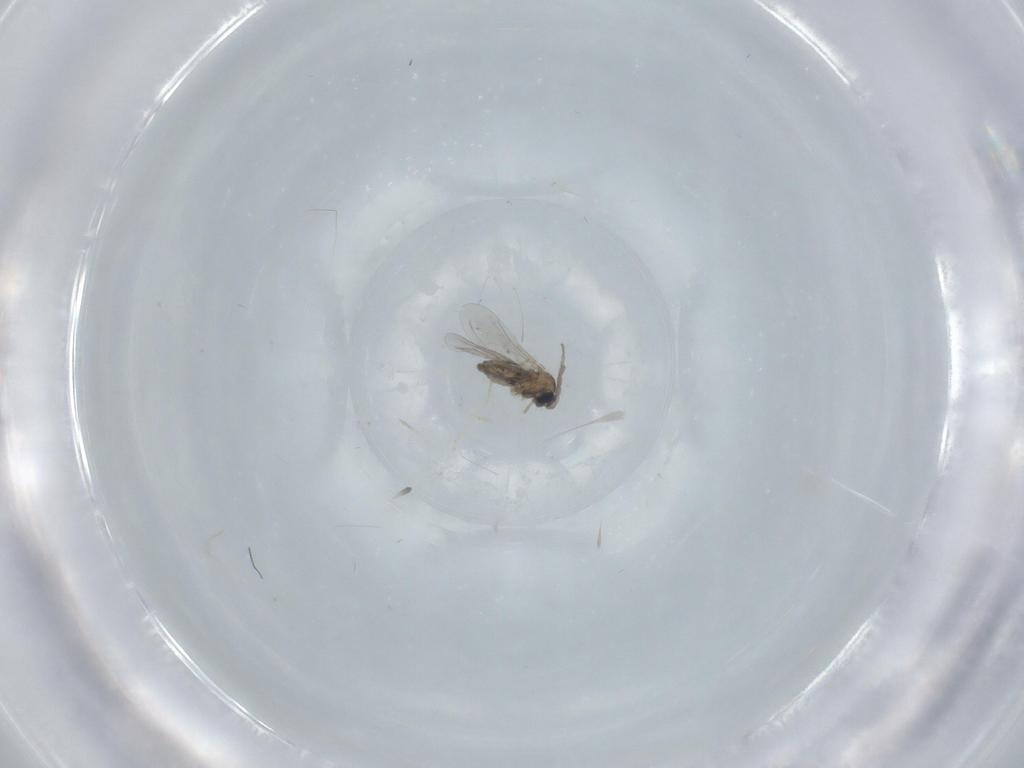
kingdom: Animalia
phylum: Arthropoda
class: Insecta
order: Diptera
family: Cecidomyiidae
